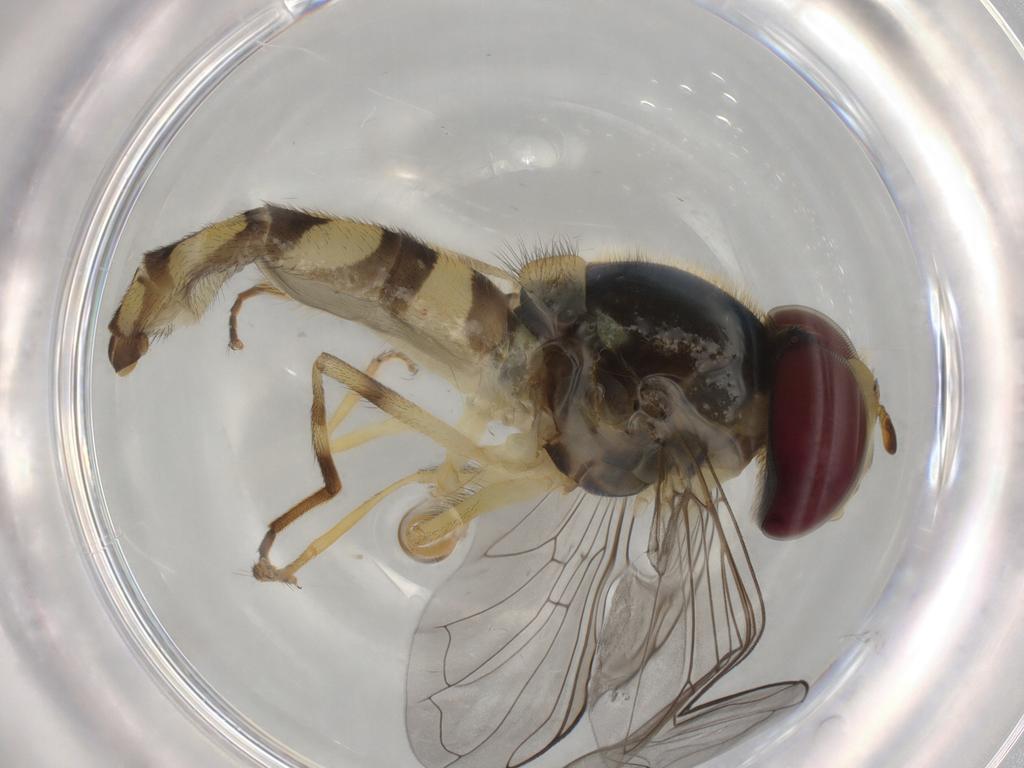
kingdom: Animalia
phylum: Arthropoda
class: Insecta
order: Diptera
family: Syrphidae
